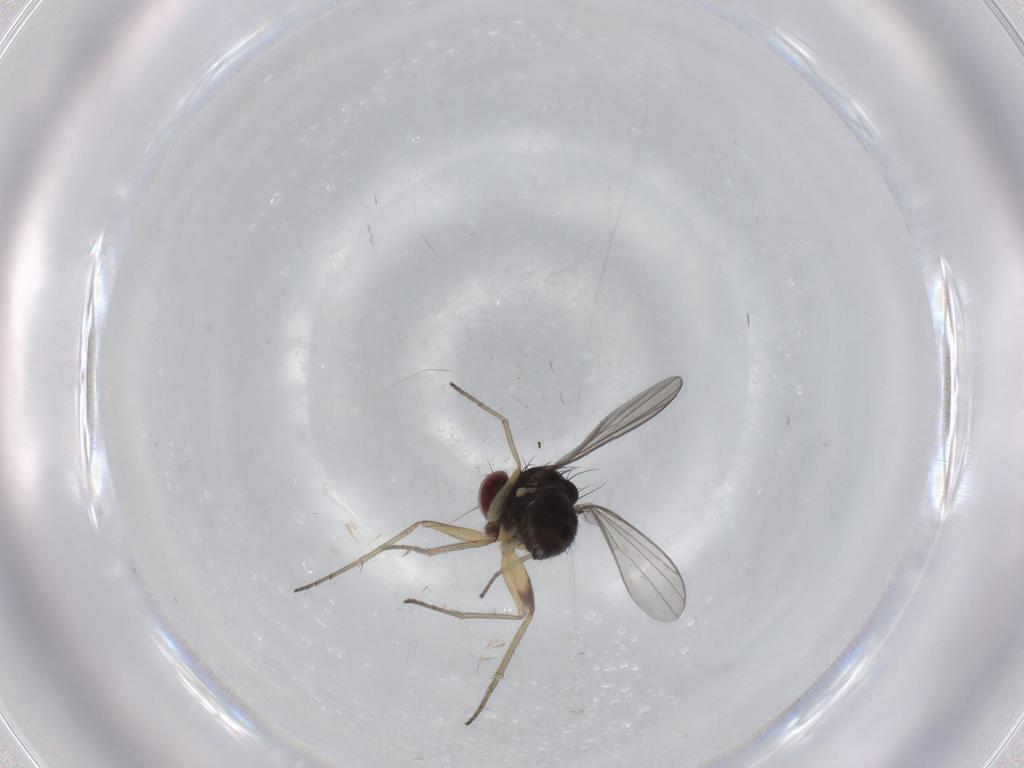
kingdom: Animalia
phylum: Arthropoda
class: Insecta
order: Diptera
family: Dolichopodidae
